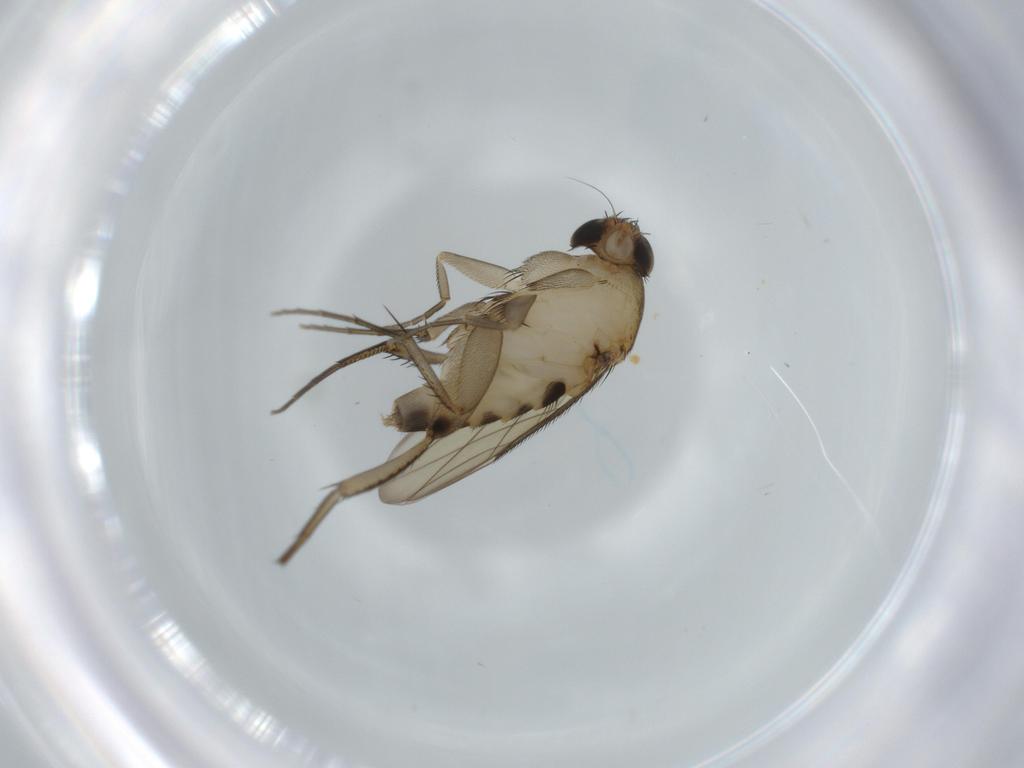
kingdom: Animalia
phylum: Arthropoda
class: Insecta
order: Diptera
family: Phoridae
